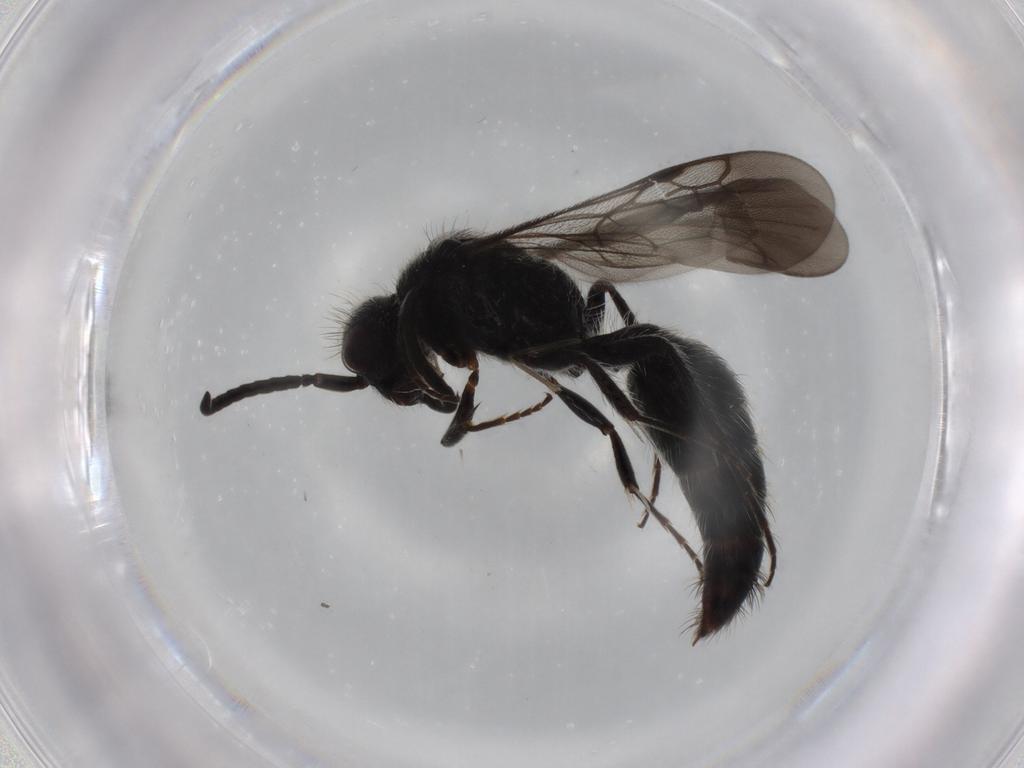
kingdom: Animalia
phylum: Arthropoda
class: Insecta
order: Hymenoptera
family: Mutillidae
